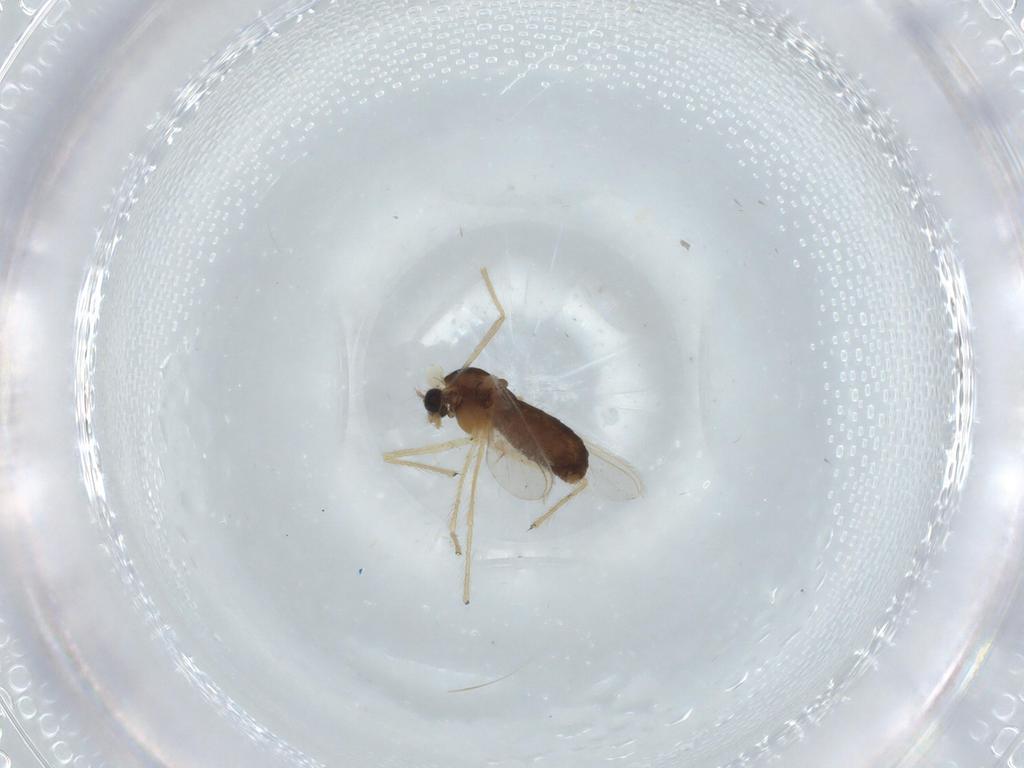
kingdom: Animalia
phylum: Arthropoda
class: Insecta
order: Diptera
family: Chironomidae
